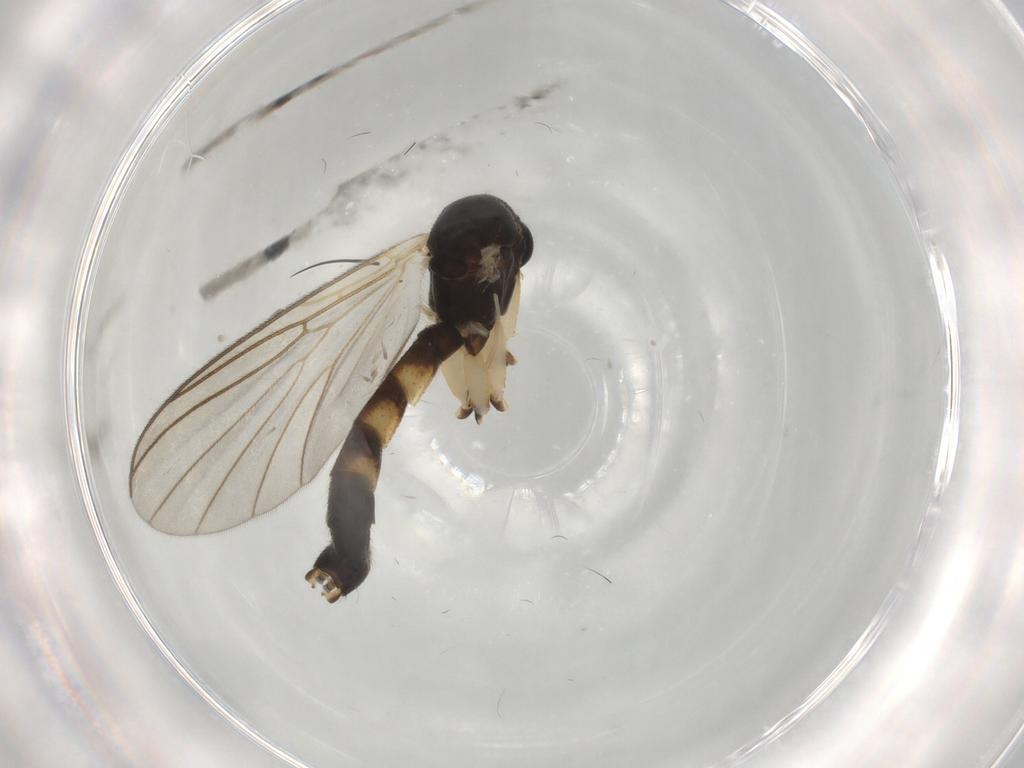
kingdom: Animalia
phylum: Arthropoda
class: Insecta
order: Diptera
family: Mycetophilidae
